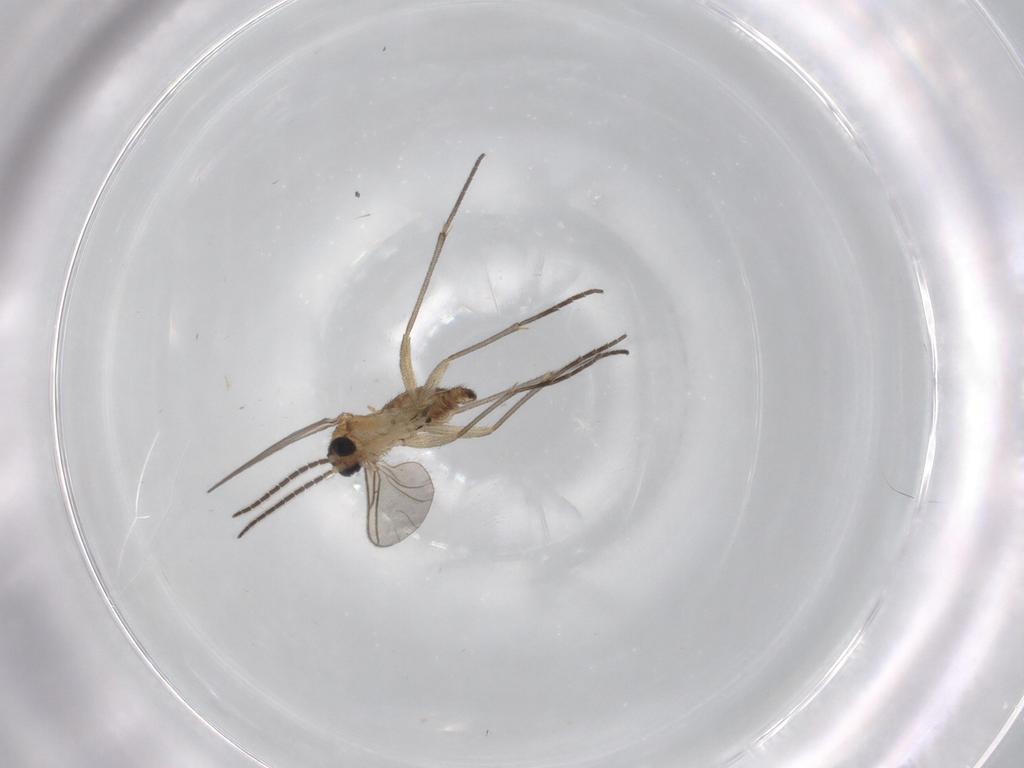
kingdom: Animalia
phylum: Arthropoda
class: Insecta
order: Diptera
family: Sciaridae
